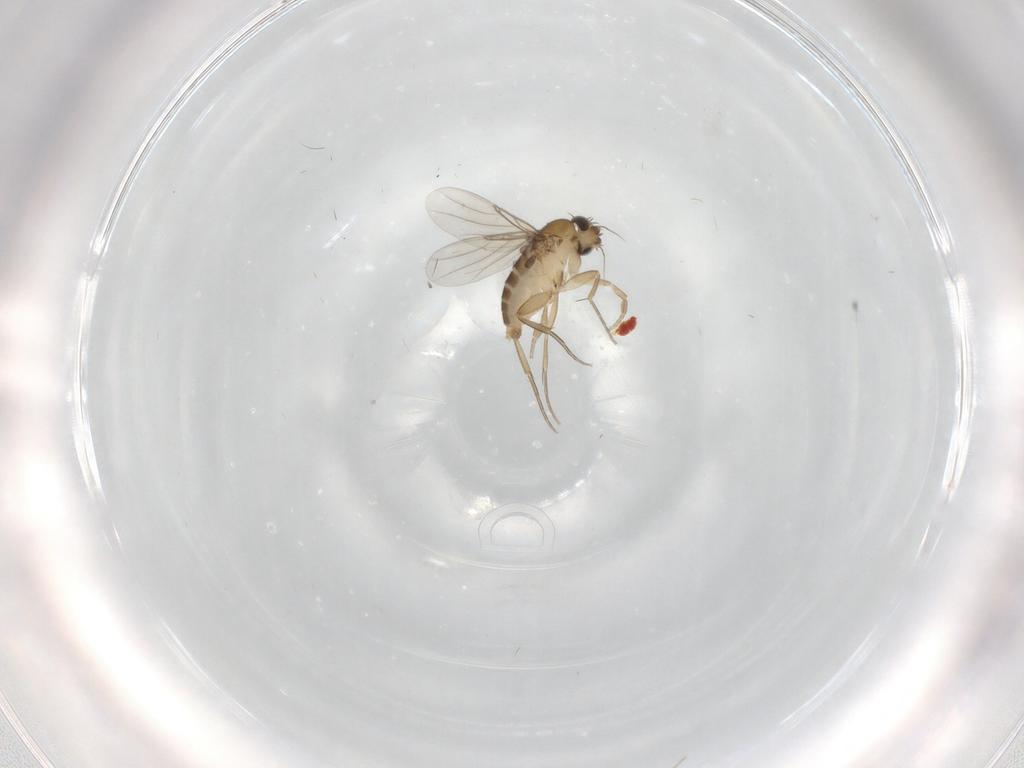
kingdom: Animalia
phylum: Arthropoda
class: Insecta
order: Diptera
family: Phoridae
